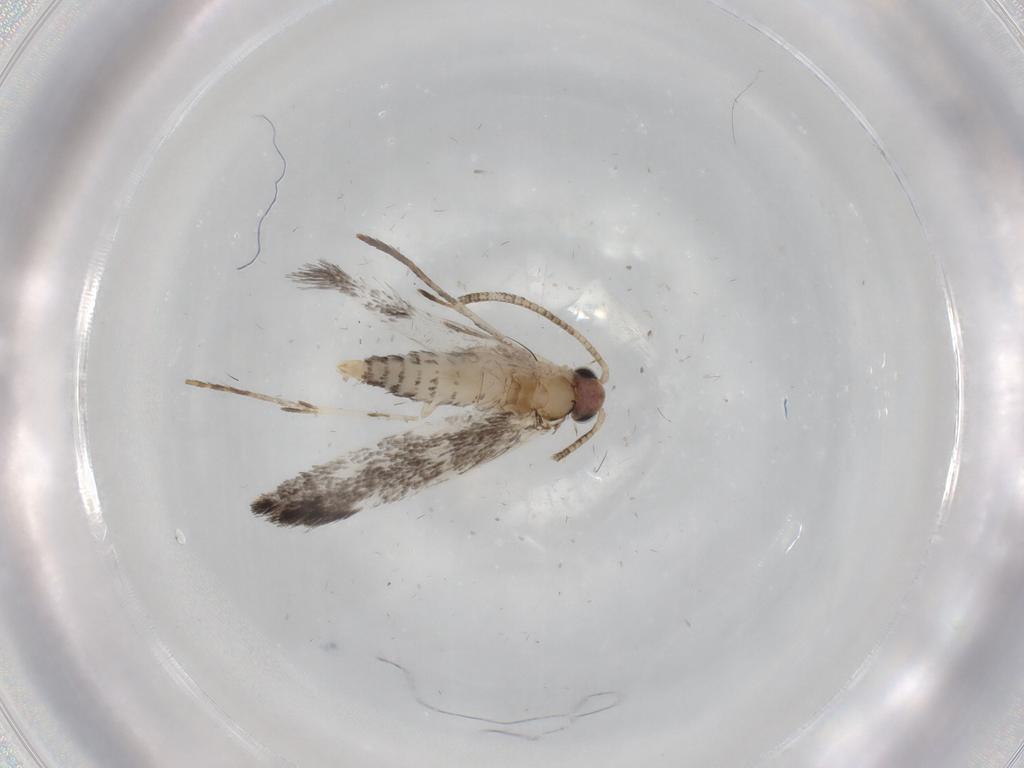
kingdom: Animalia
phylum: Arthropoda
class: Insecta
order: Lepidoptera
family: Tineidae
